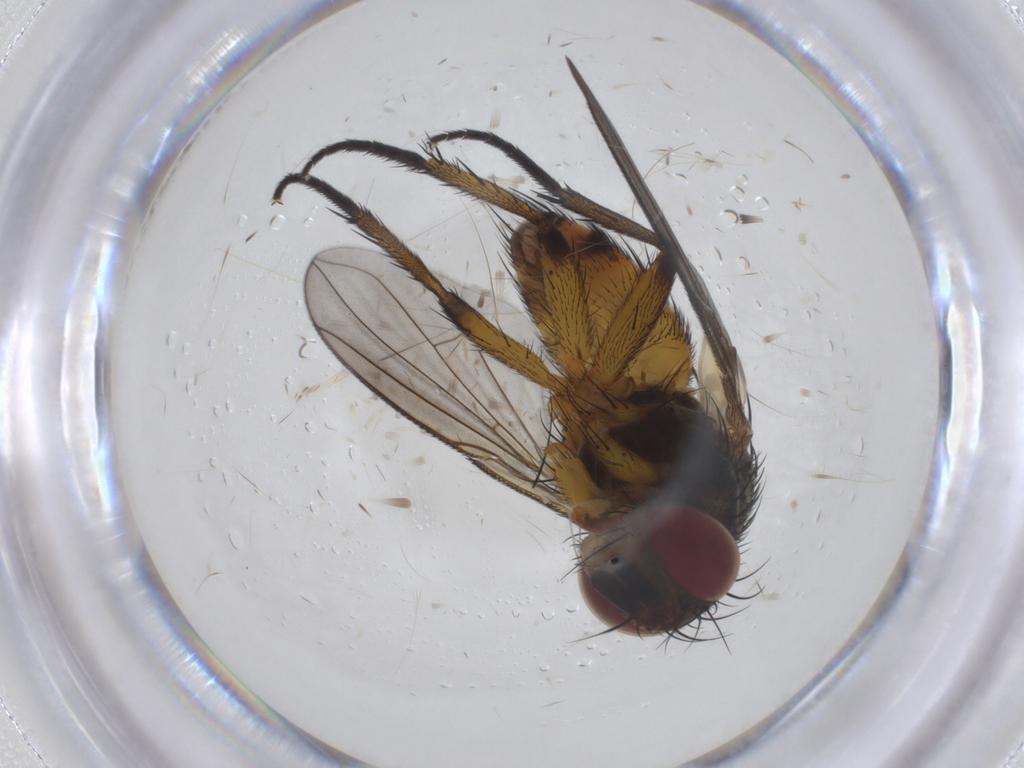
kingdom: Animalia
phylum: Arthropoda
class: Insecta
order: Diptera
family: Tachinidae
